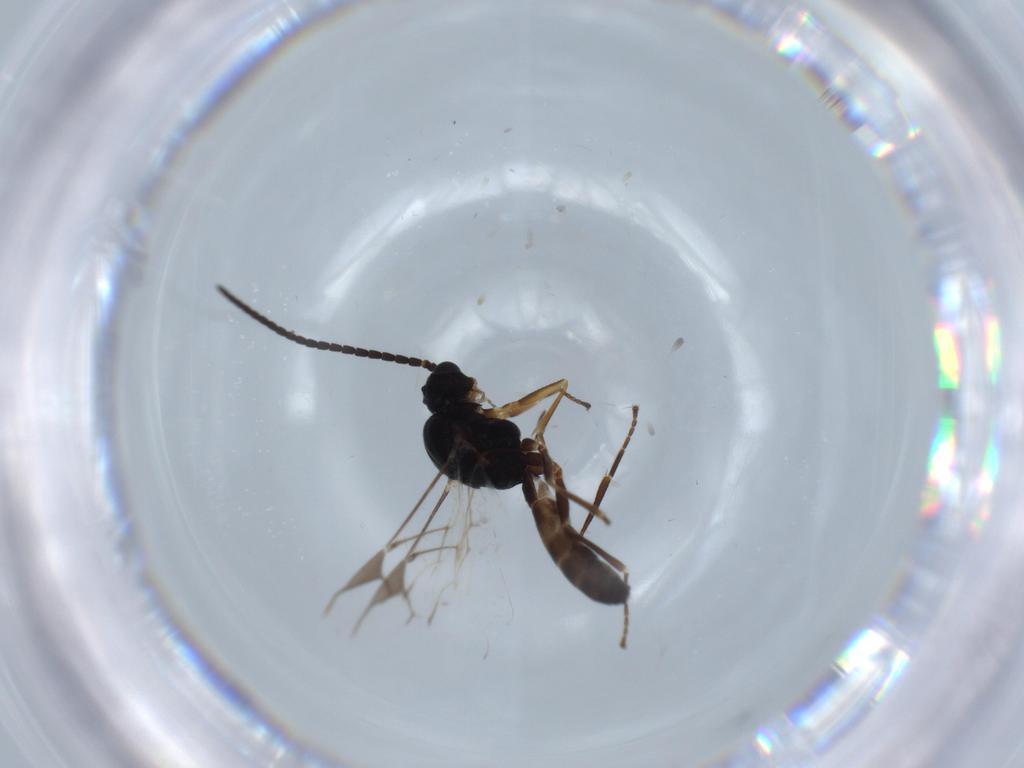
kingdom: Animalia
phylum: Arthropoda
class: Insecta
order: Hymenoptera
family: Braconidae
